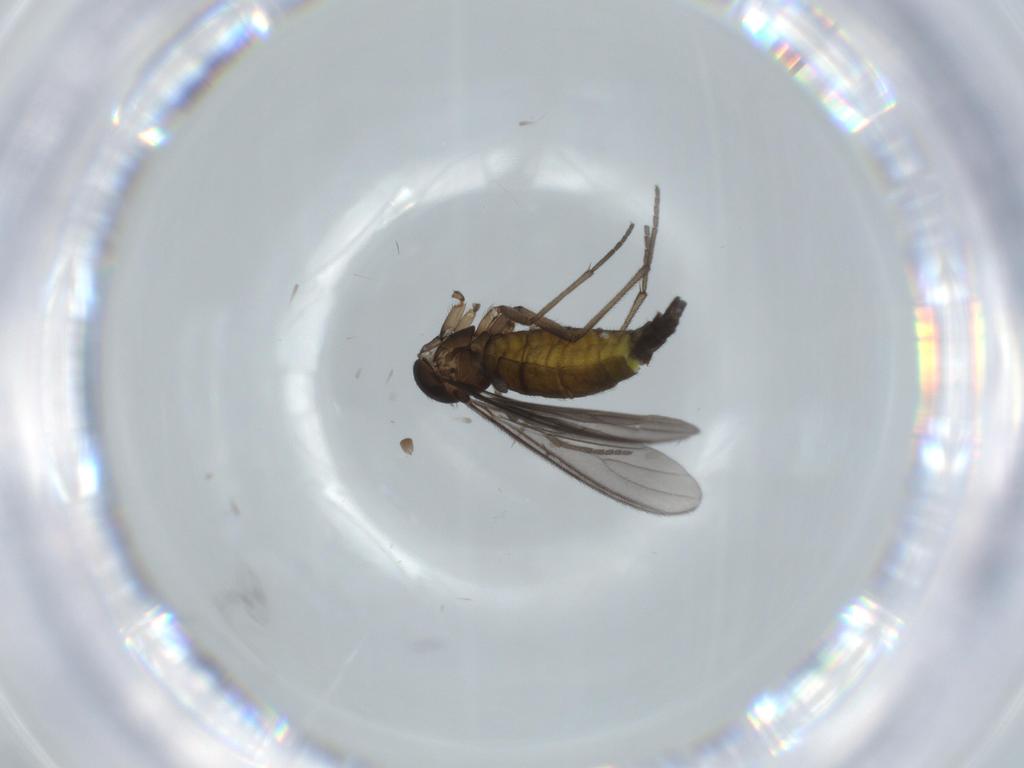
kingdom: Animalia
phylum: Arthropoda
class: Insecta
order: Diptera
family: Sciaridae
